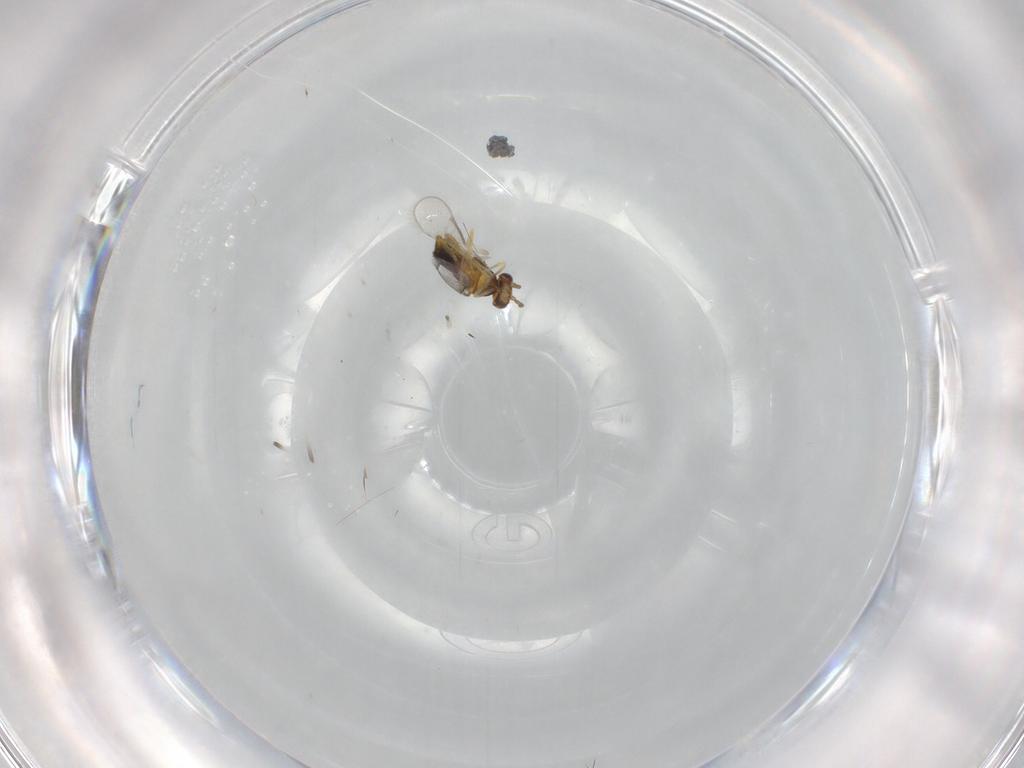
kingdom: Animalia
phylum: Arthropoda
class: Insecta
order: Hymenoptera
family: Aphelinidae
